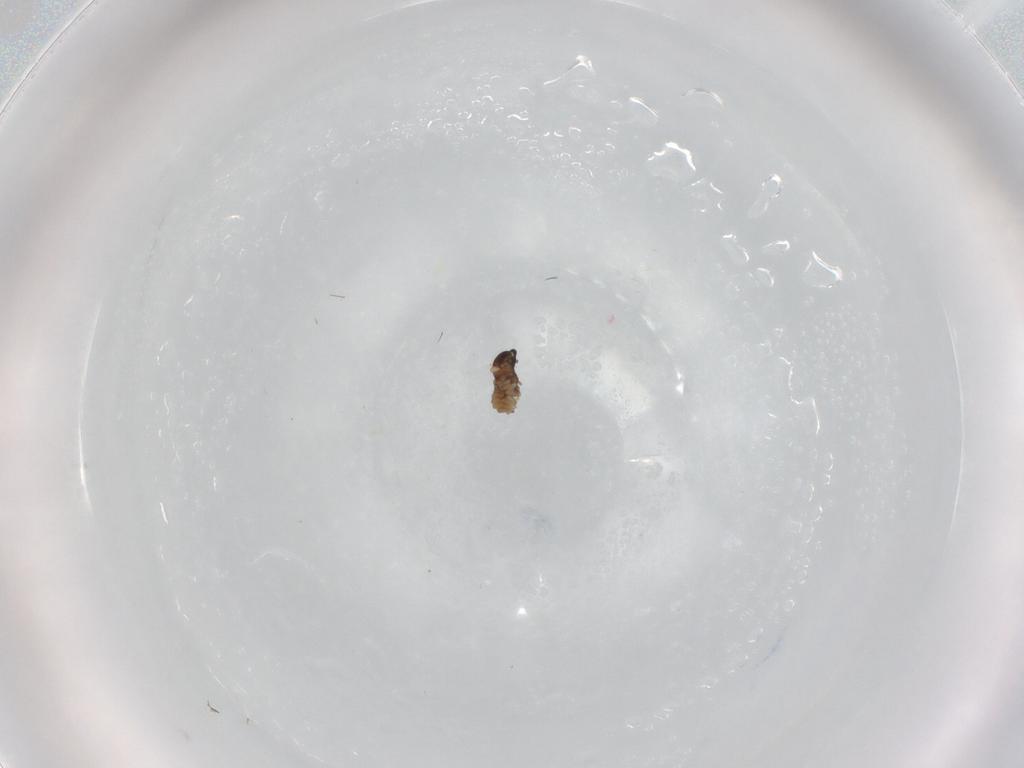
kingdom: Animalia
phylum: Arthropoda
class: Insecta
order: Diptera
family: Cecidomyiidae
